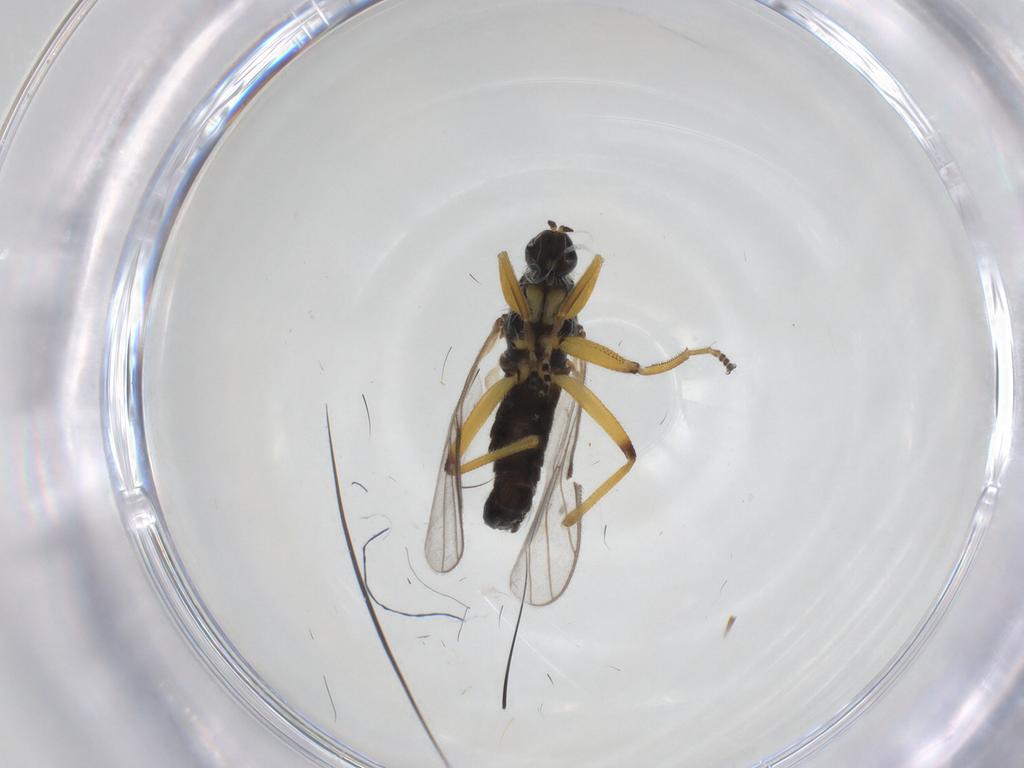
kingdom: Animalia
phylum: Arthropoda
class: Insecta
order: Diptera
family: Hybotidae
